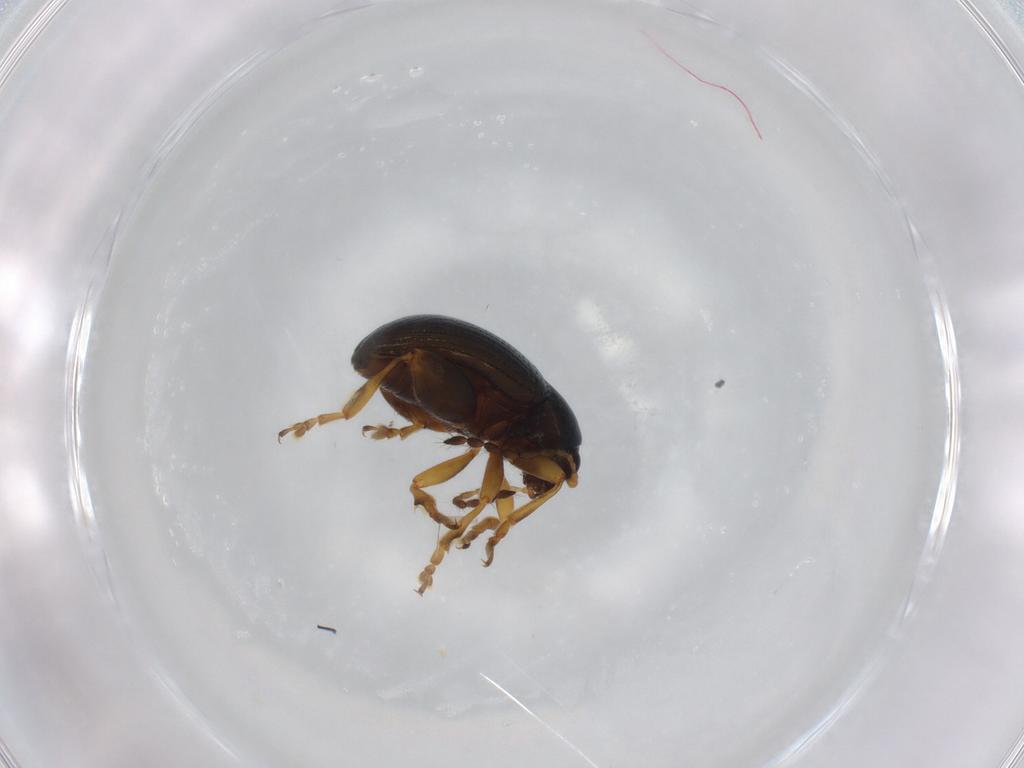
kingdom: Animalia
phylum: Arthropoda
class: Insecta
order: Coleoptera
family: Chrysomelidae
